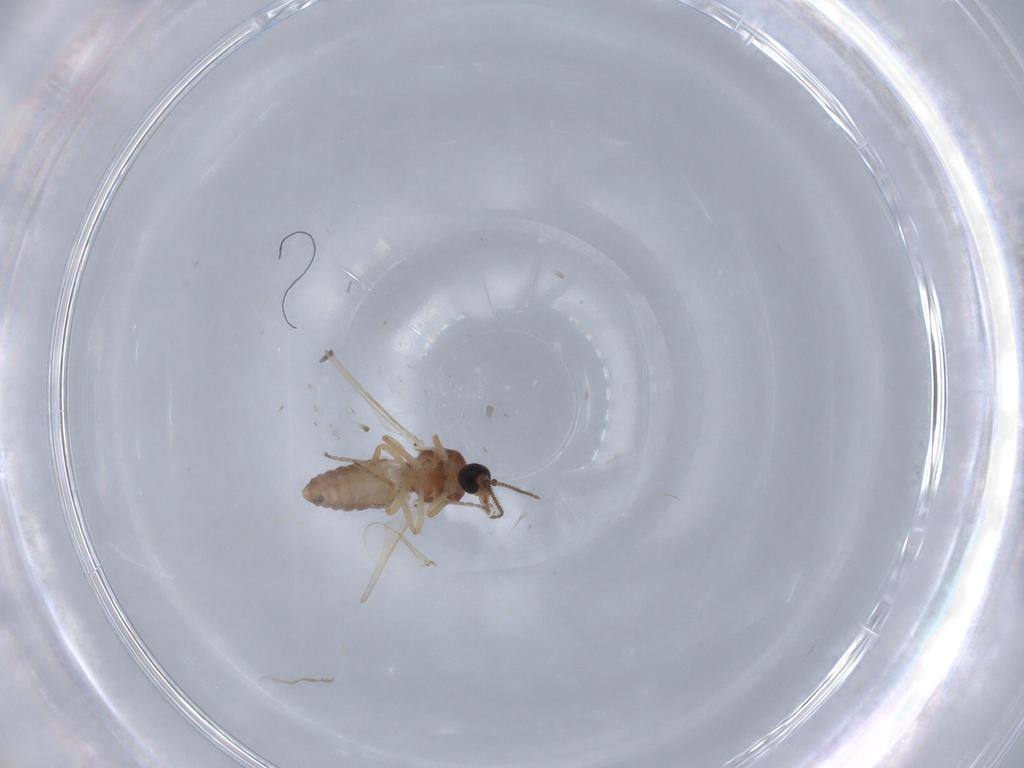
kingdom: Animalia
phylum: Arthropoda
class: Insecta
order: Diptera
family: Ceratopogonidae
